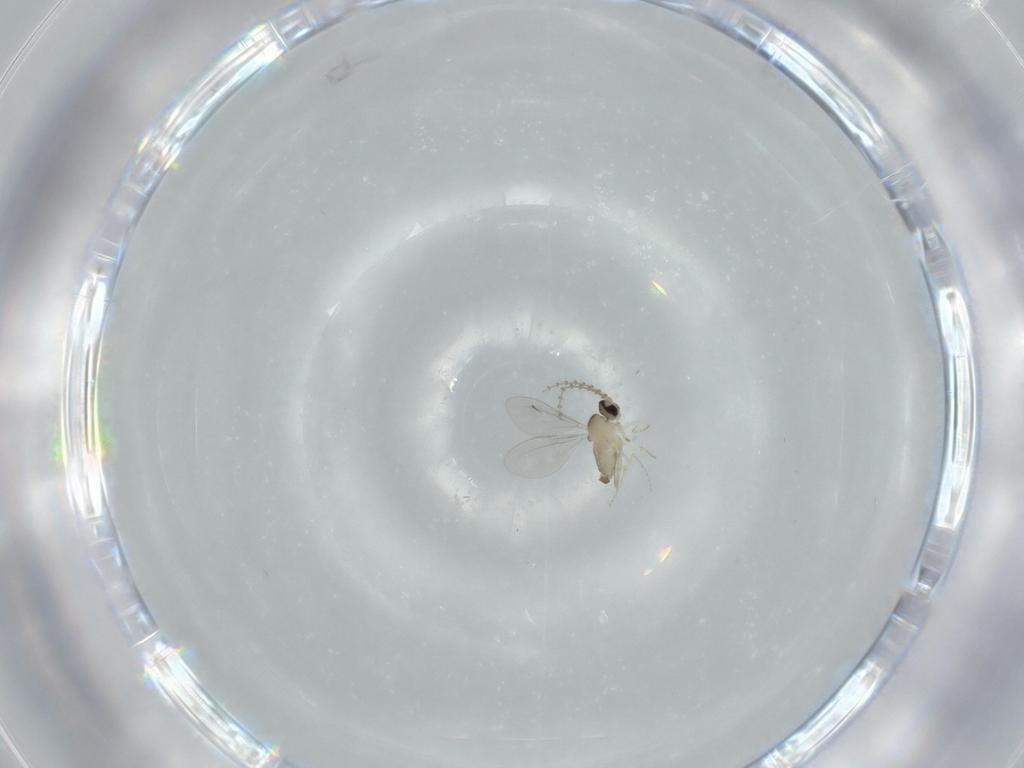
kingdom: Animalia
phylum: Arthropoda
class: Insecta
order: Diptera
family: Cecidomyiidae
